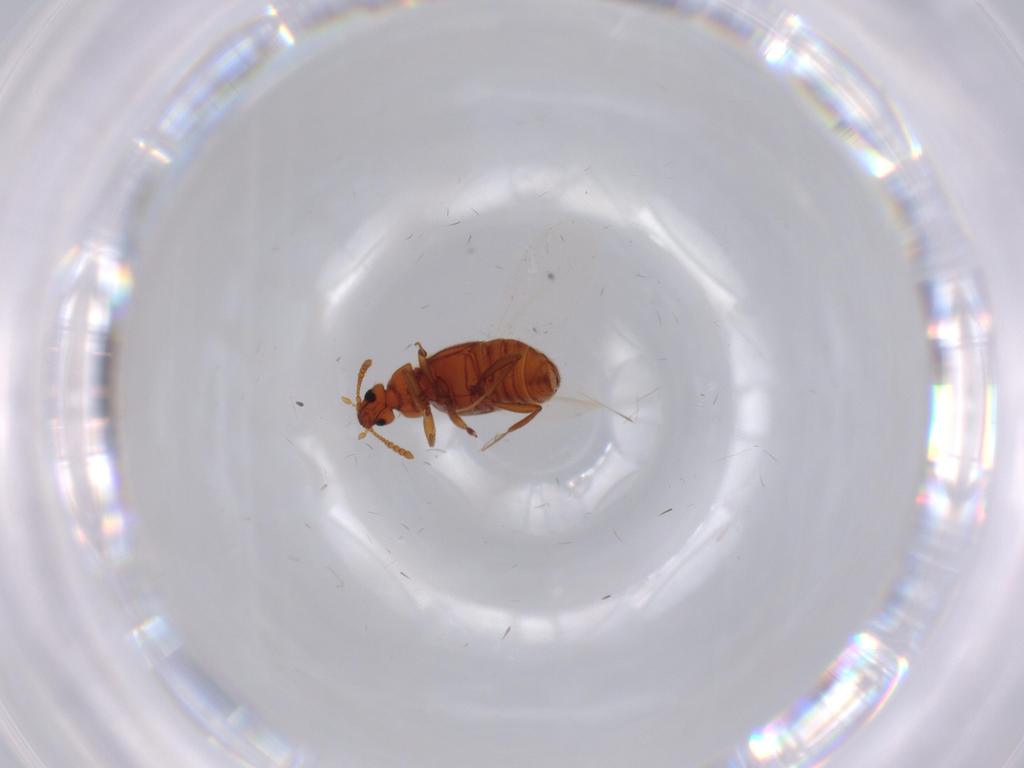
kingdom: Animalia
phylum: Arthropoda
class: Insecta
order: Coleoptera
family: Staphylinidae
